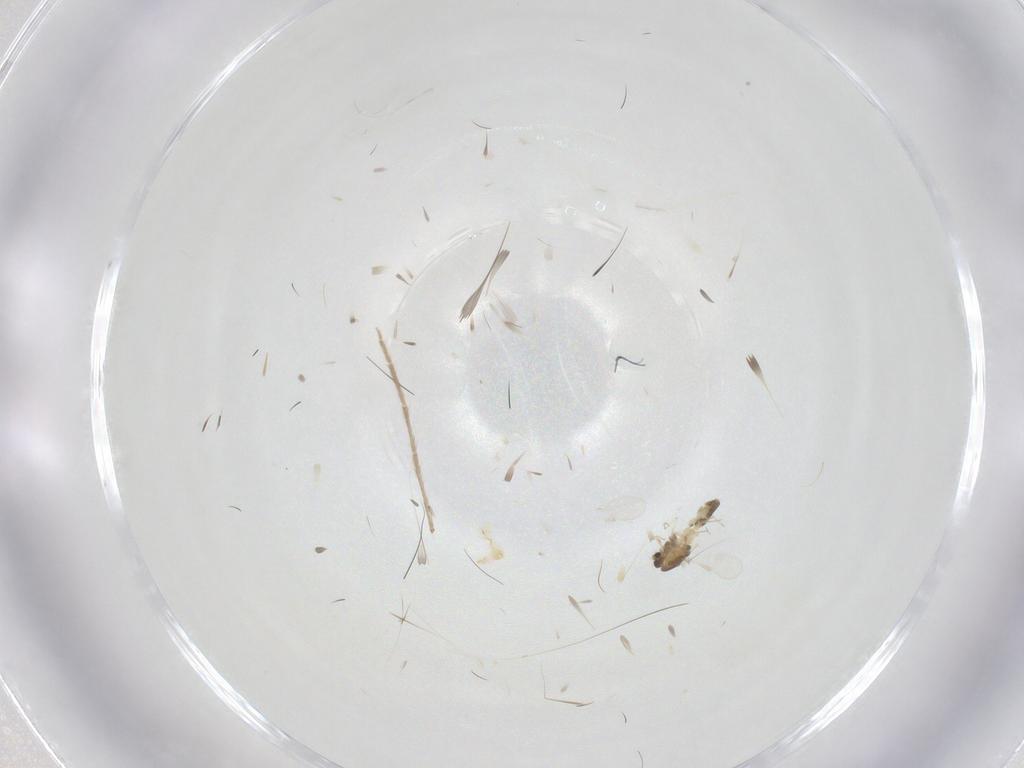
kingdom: Animalia
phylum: Arthropoda
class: Insecta
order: Diptera
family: Chironomidae
